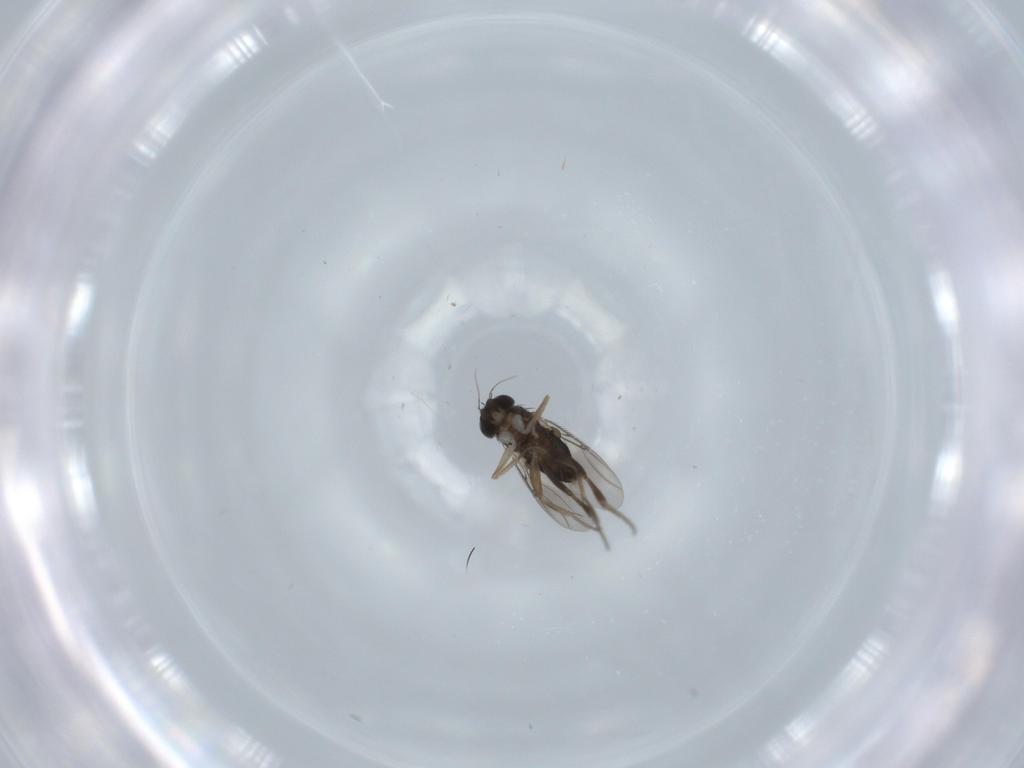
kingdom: Animalia
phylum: Arthropoda
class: Insecta
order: Diptera
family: Phoridae
